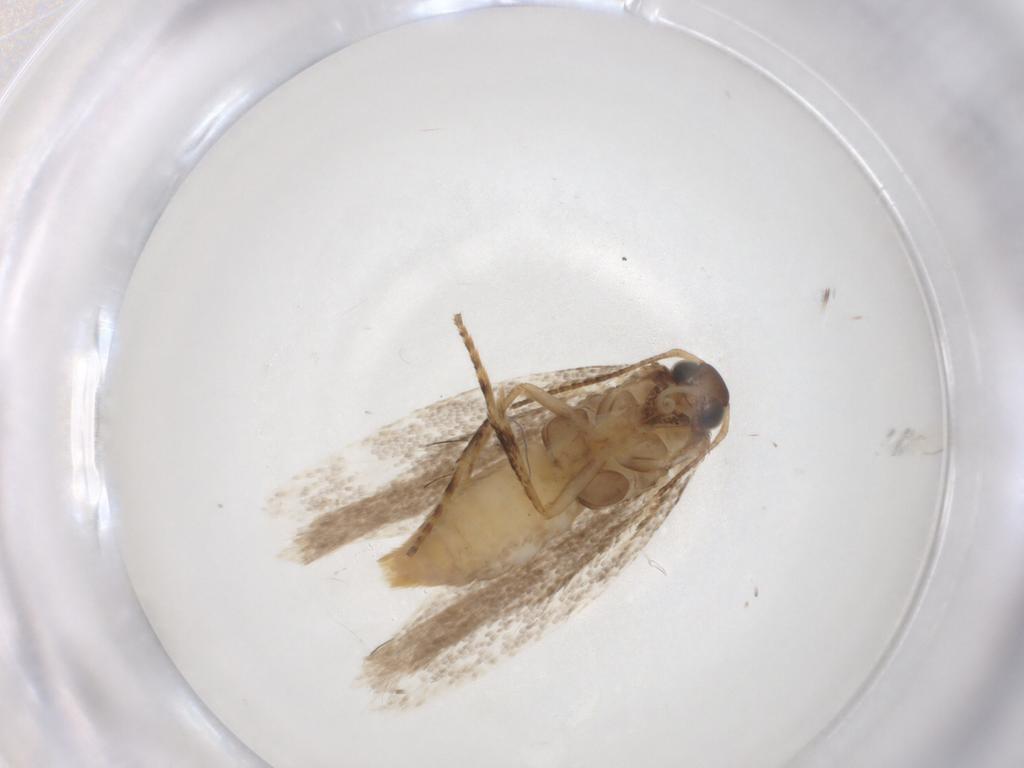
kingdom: Animalia
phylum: Arthropoda
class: Insecta
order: Lepidoptera
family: Gelechiidae
